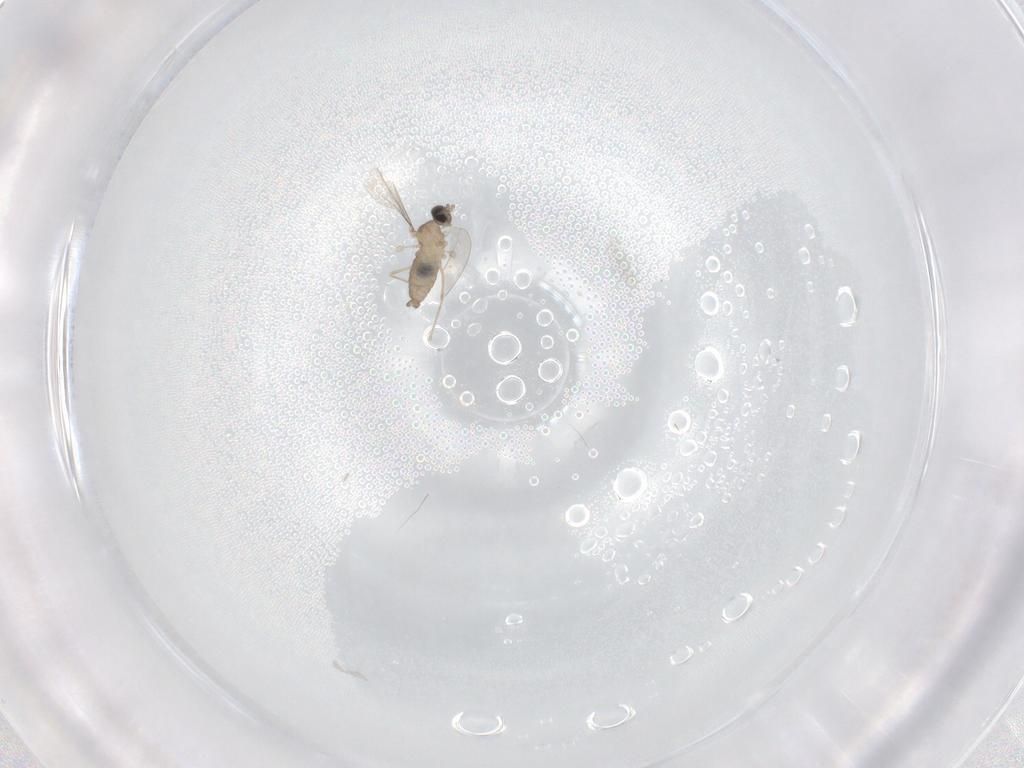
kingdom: Animalia
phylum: Arthropoda
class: Insecta
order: Diptera
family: Cecidomyiidae
